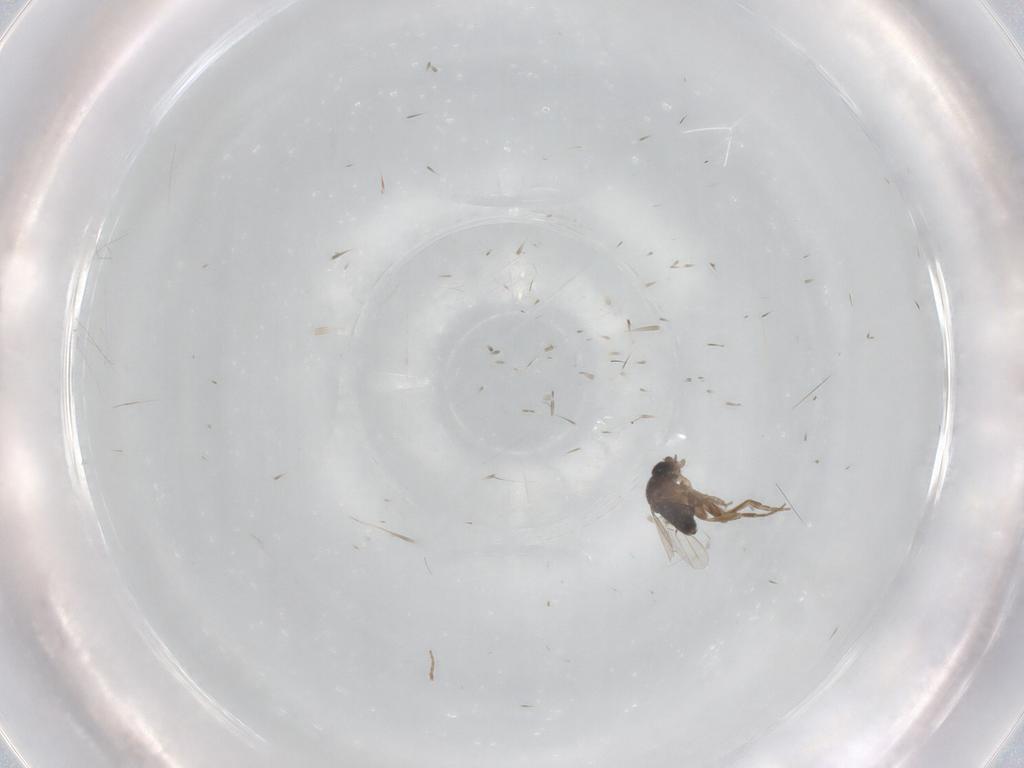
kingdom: Animalia
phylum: Arthropoda
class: Insecta
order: Diptera
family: Phoridae
